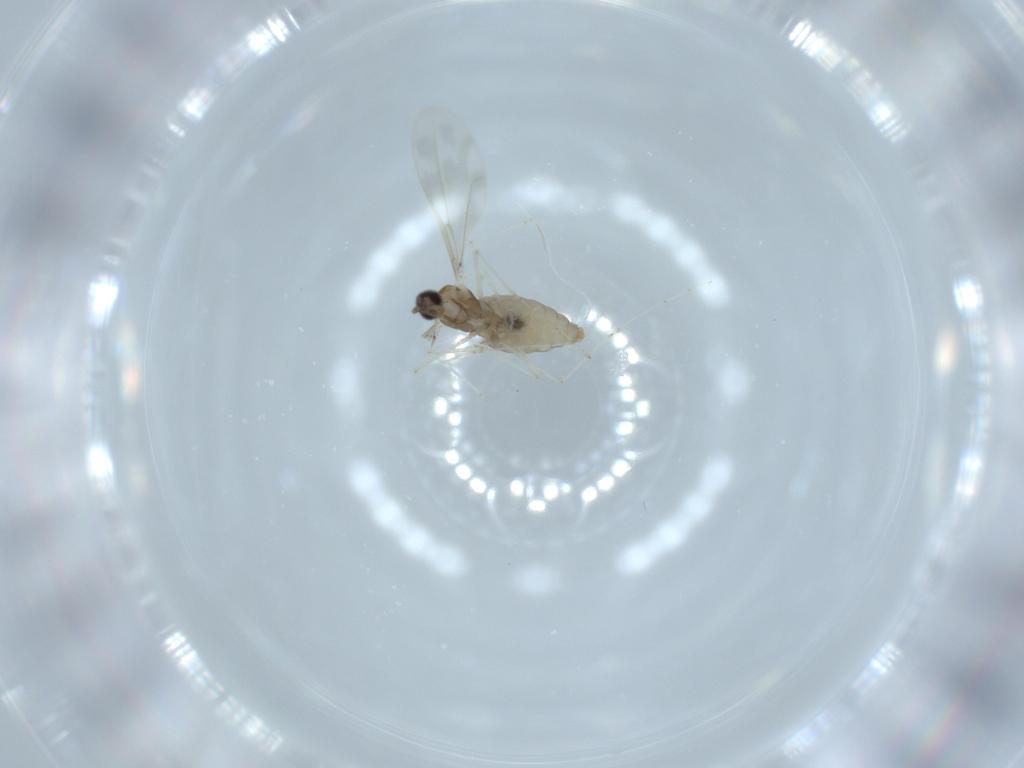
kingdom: Animalia
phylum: Arthropoda
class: Insecta
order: Diptera
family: Cecidomyiidae
